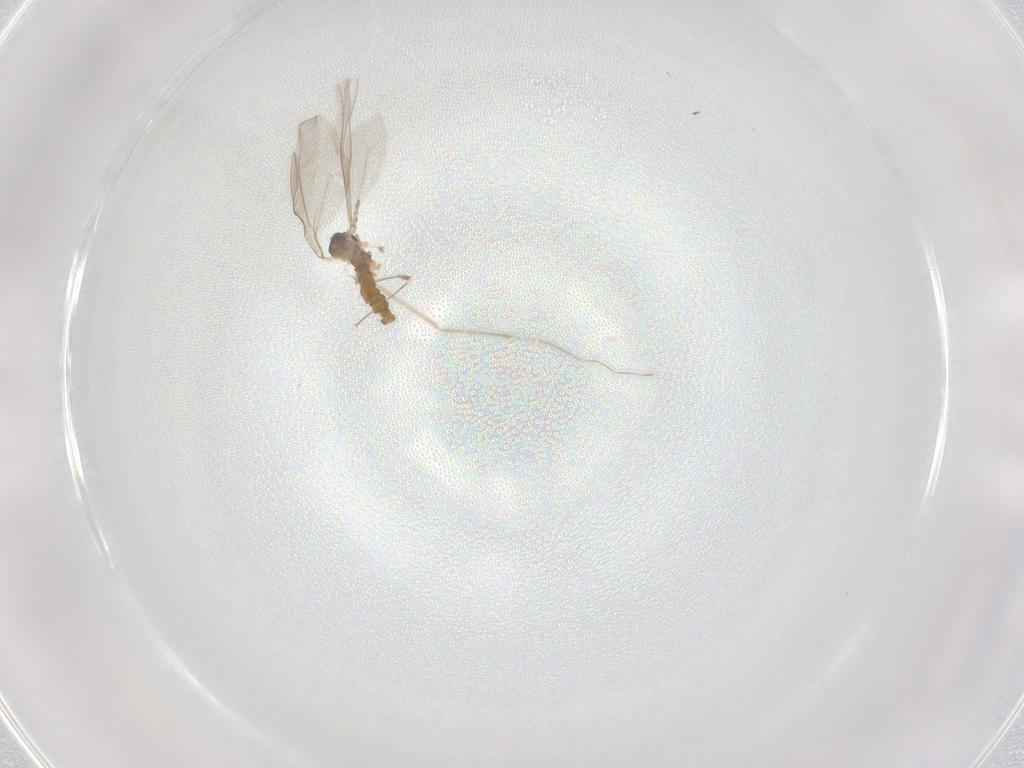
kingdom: Animalia
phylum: Arthropoda
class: Insecta
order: Diptera
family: Cecidomyiidae
